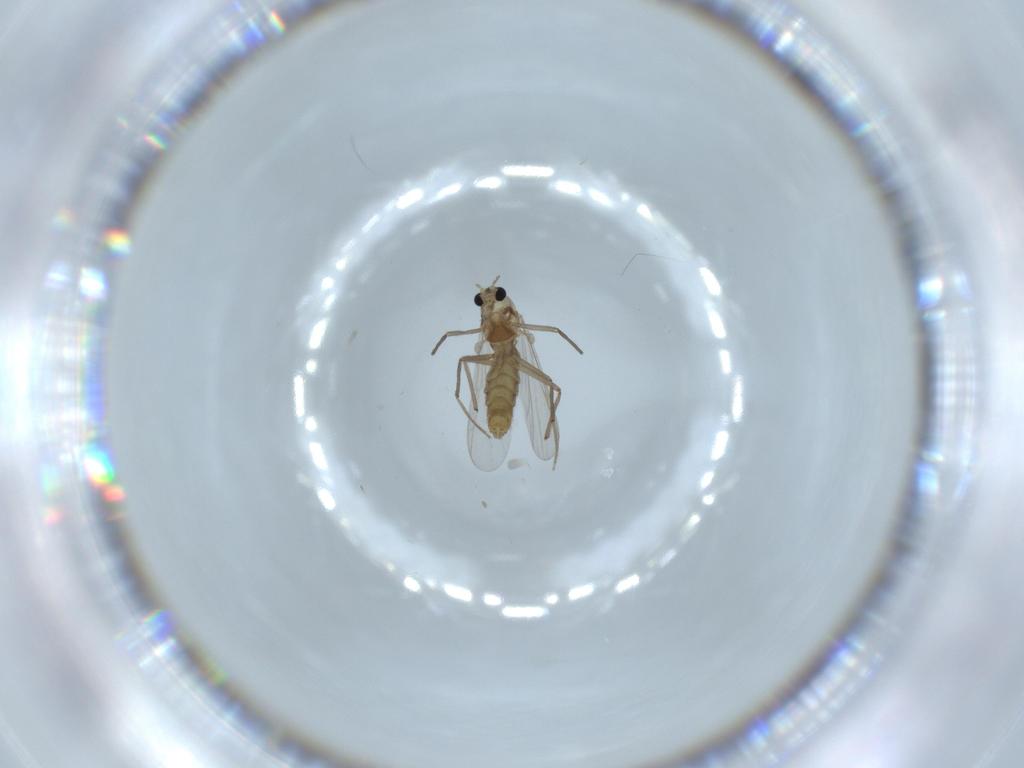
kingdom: Animalia
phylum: Arthropoda
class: Insecta
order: Diptera
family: Chironomidae
